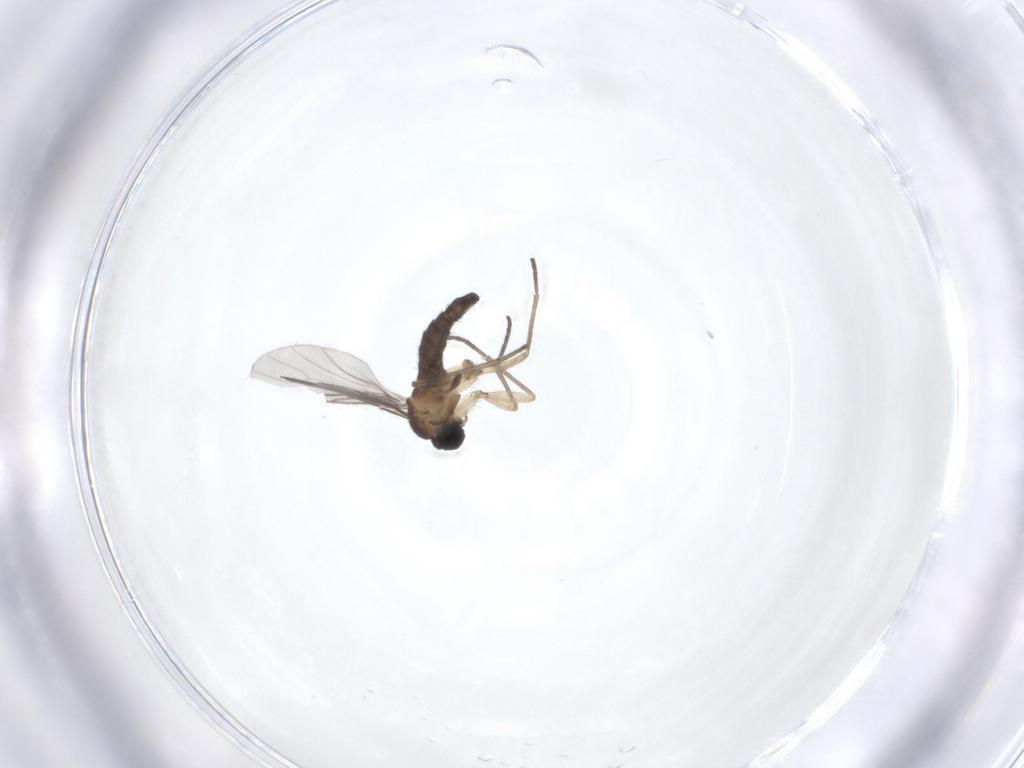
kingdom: Animalia
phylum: Arthropoda
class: Insecta
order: Diptera
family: Sciaridae
